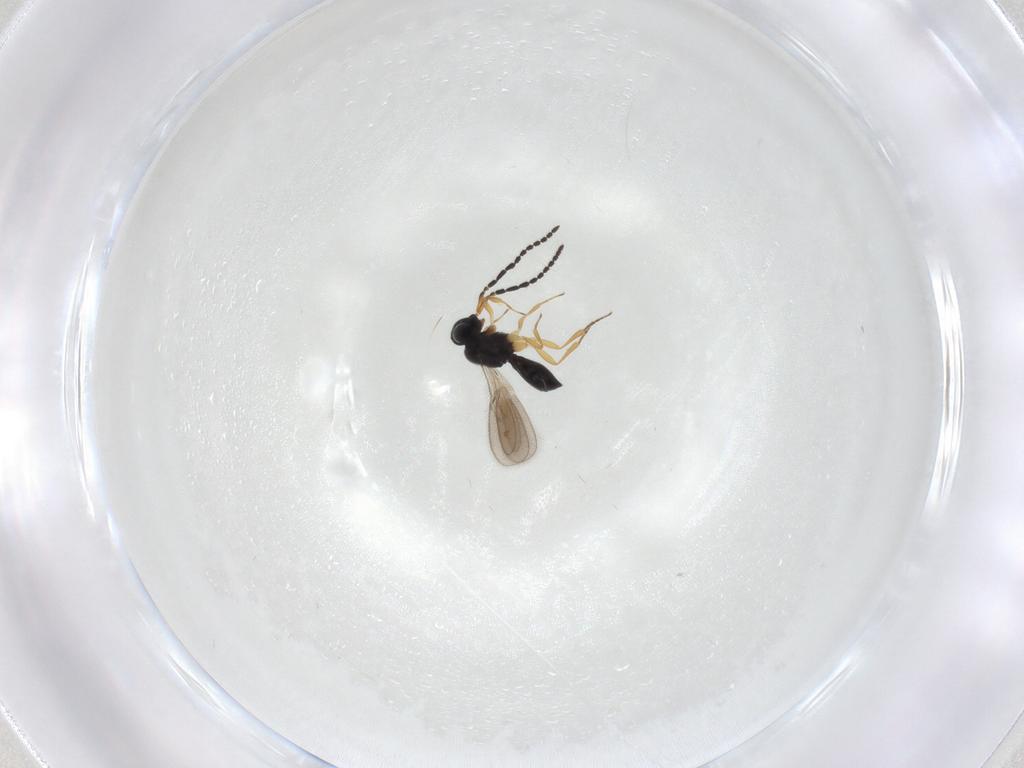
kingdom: Animalia
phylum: Arthropoda
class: Insecta
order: Hymenoptera
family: Scelionidae
